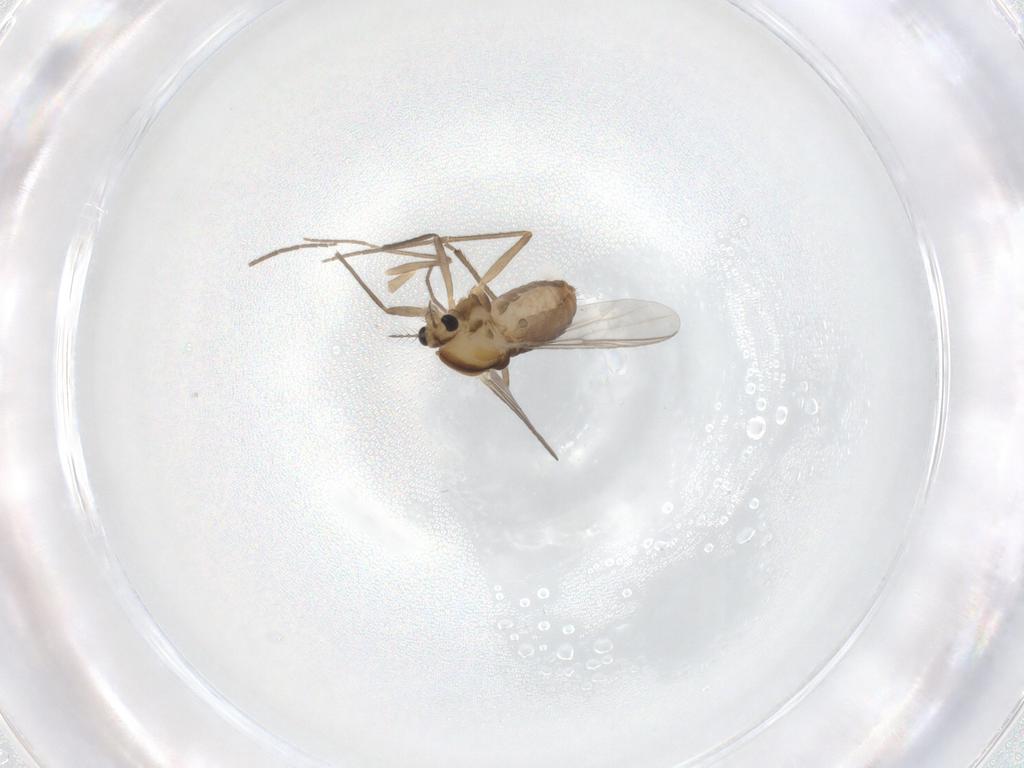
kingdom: Animalia
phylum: Arthropoda
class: Insecta
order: Diptera
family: Chironomidae
